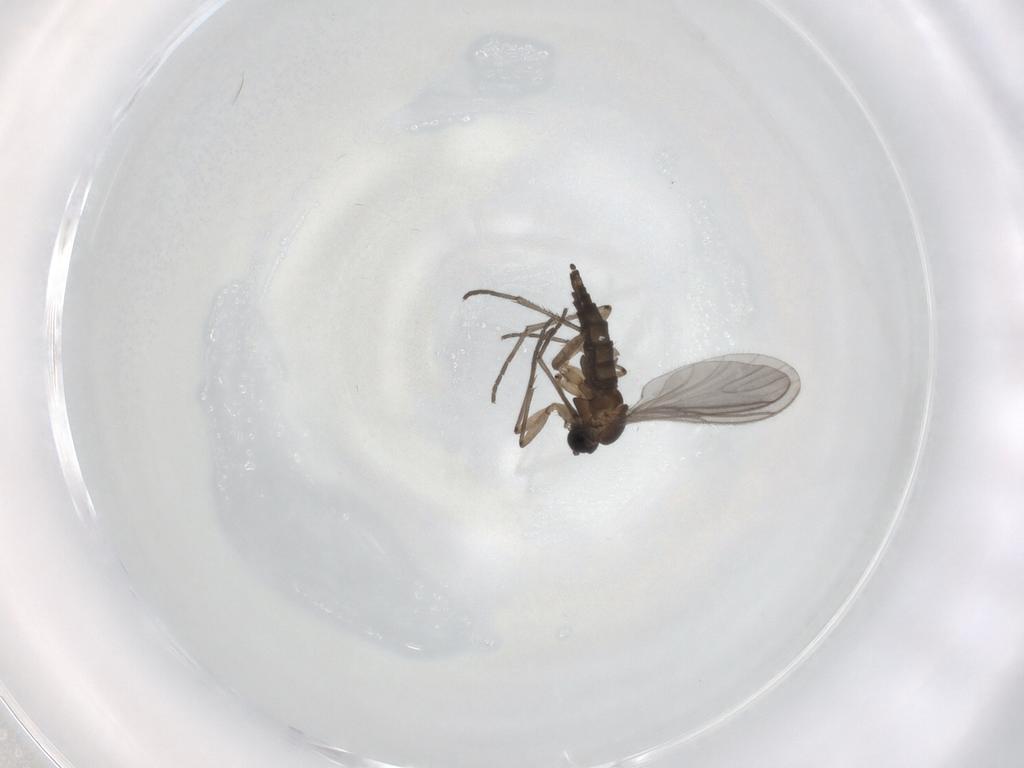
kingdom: Animalia
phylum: Arthropoda
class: Insecta
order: Diptera
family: Sciaridae
